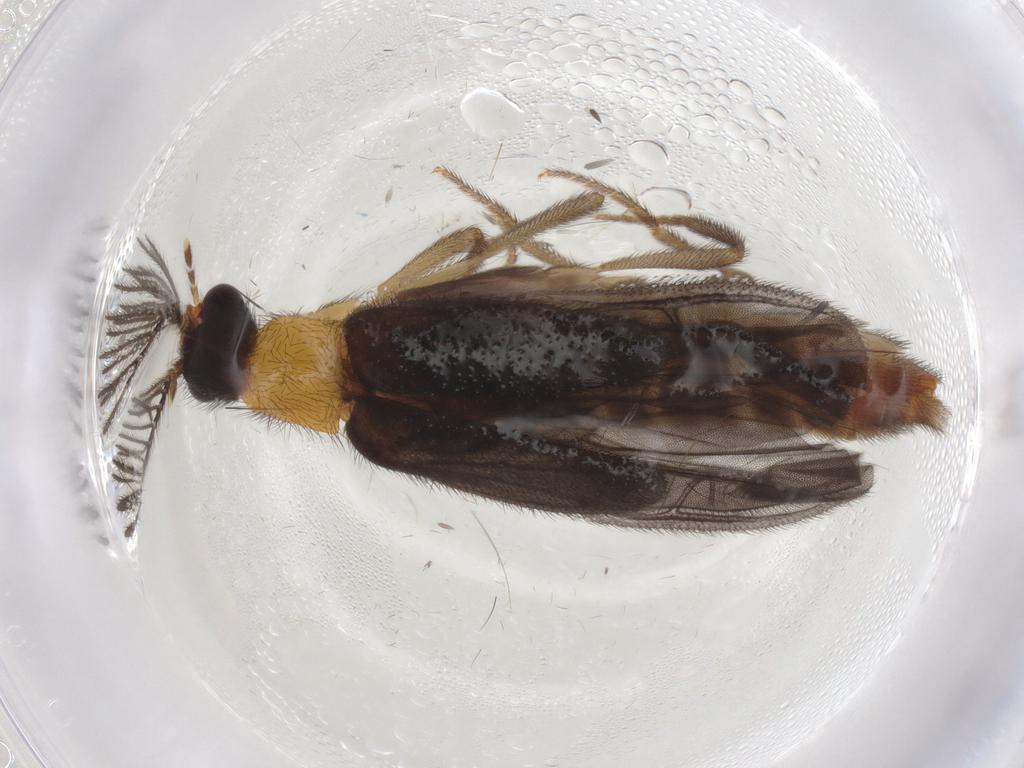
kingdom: Animalia
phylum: Arthropoda
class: Insecta
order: Coleoptera
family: Phengodidae
